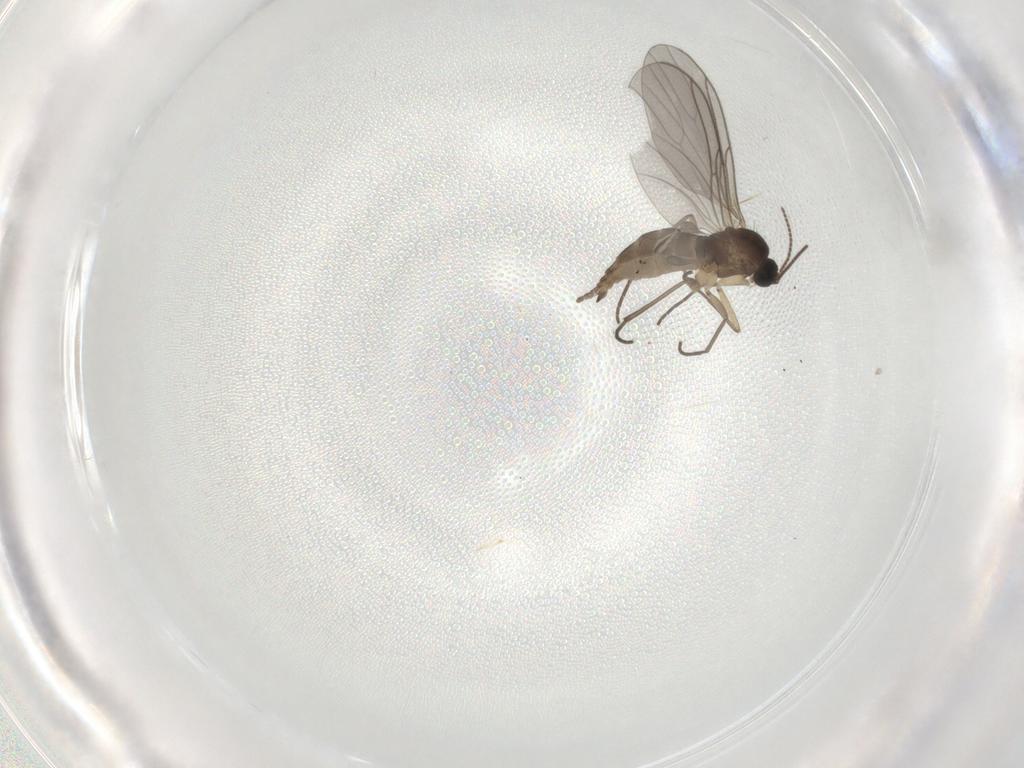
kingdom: Animalia
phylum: Arthropoda
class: Insecta
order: Diptera
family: Sciaridae
